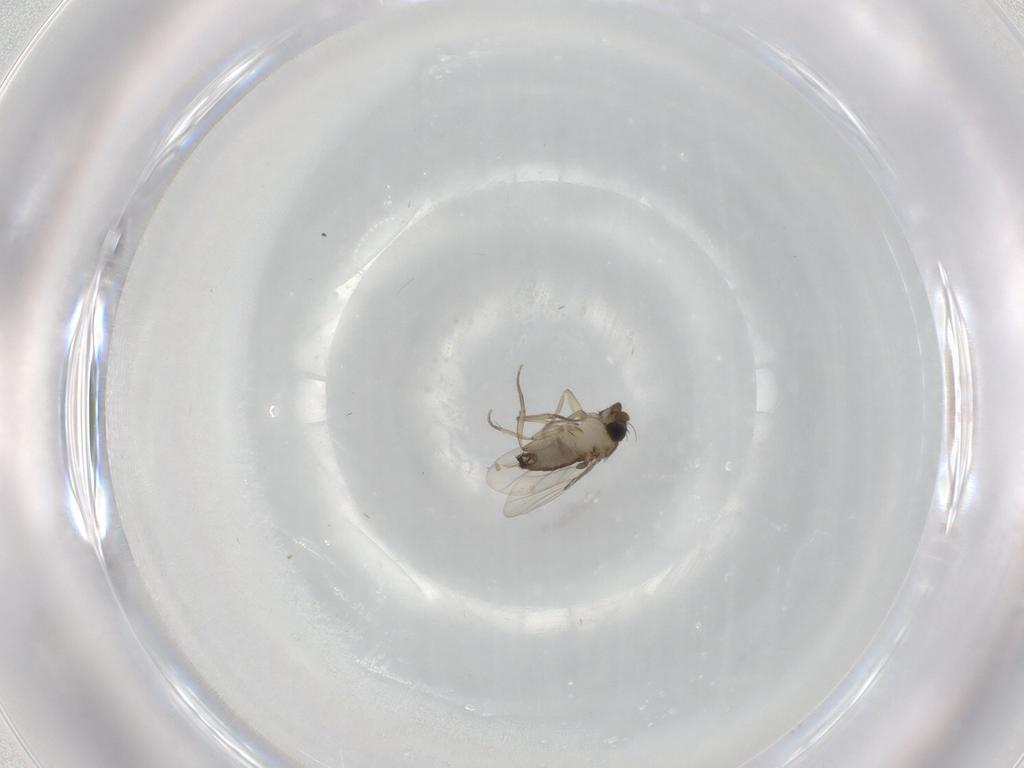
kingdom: Animalia
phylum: Arthropoda
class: Insecta
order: Diptera
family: Phoridae
